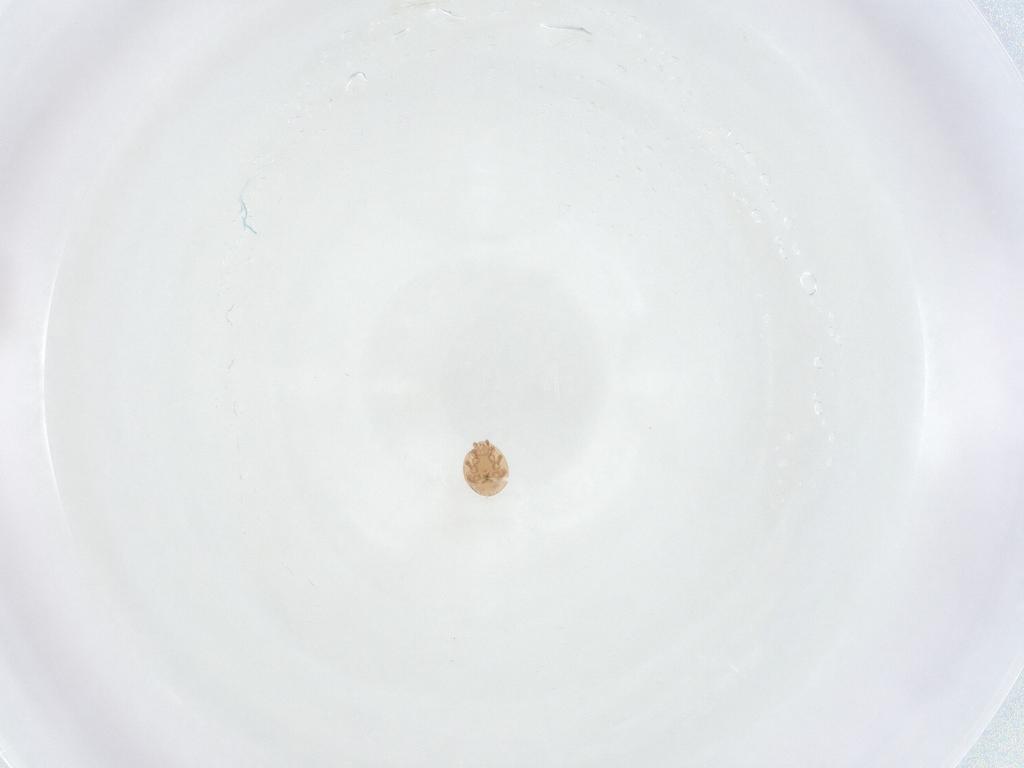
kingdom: Animalia
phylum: Arthropoda
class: Arachnida
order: Mesostigmata
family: Trematuridae
